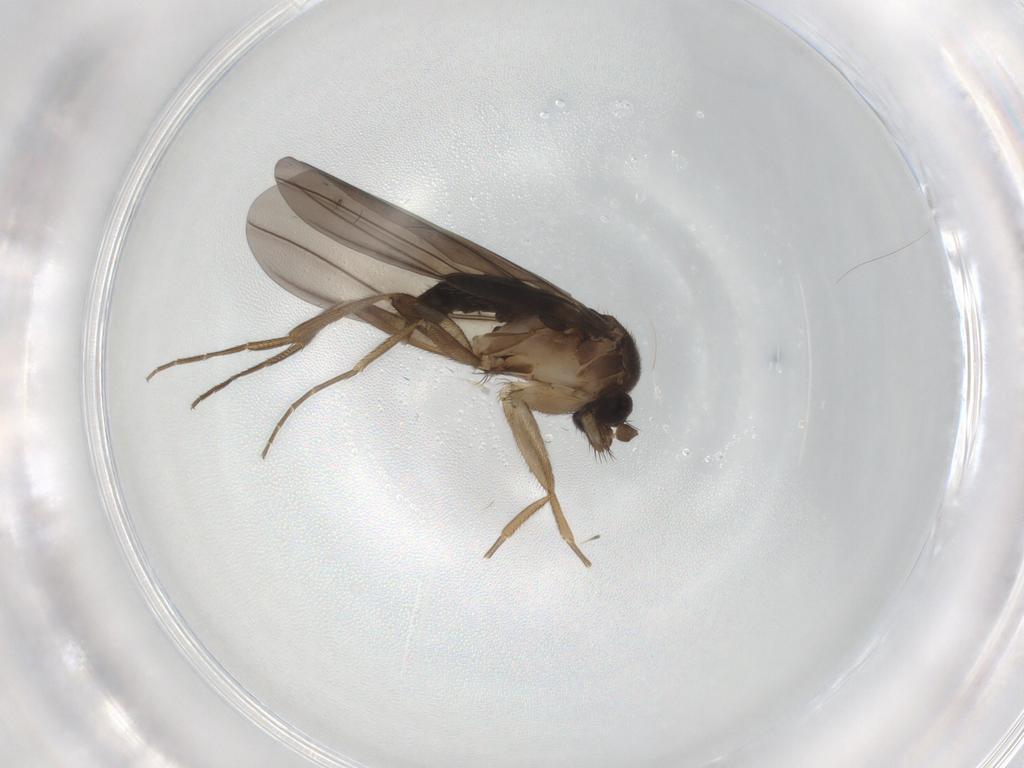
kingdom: Animalia
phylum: Arthropoda
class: Insecta
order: Diptera
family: Phoridae
